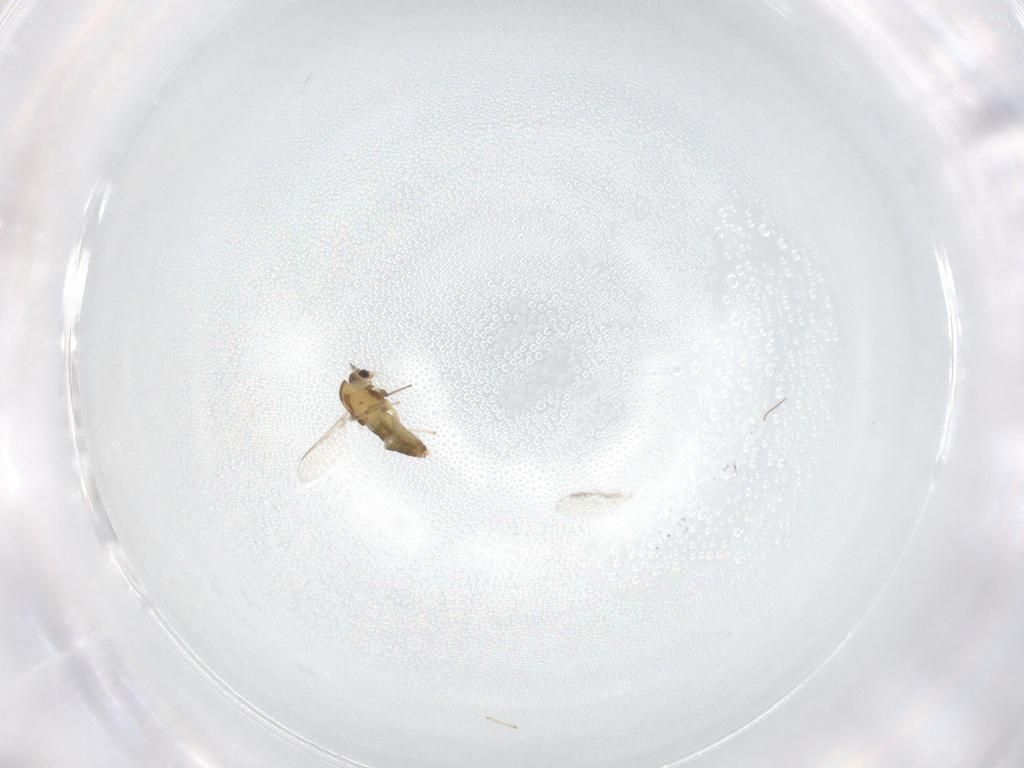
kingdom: Animalia
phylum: Arthropoda
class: Insecta
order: Diptera
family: Chironomidae
